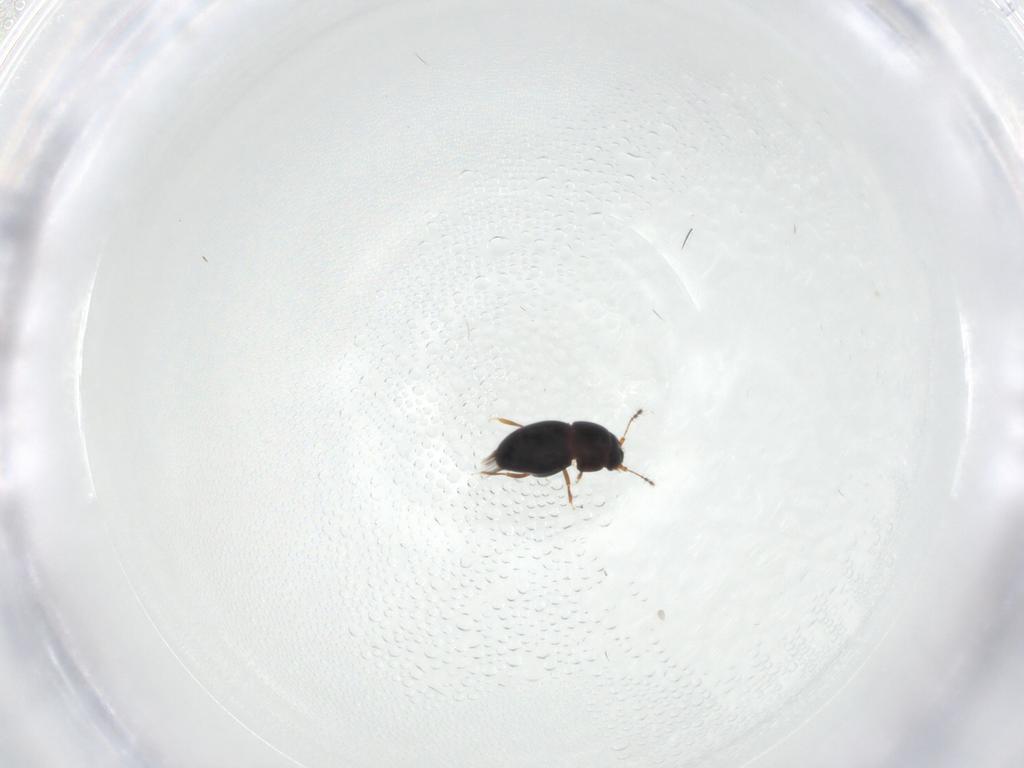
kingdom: Animalia
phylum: Arthropoda
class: Insecta
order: Coleoptera
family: Ptiliidae
